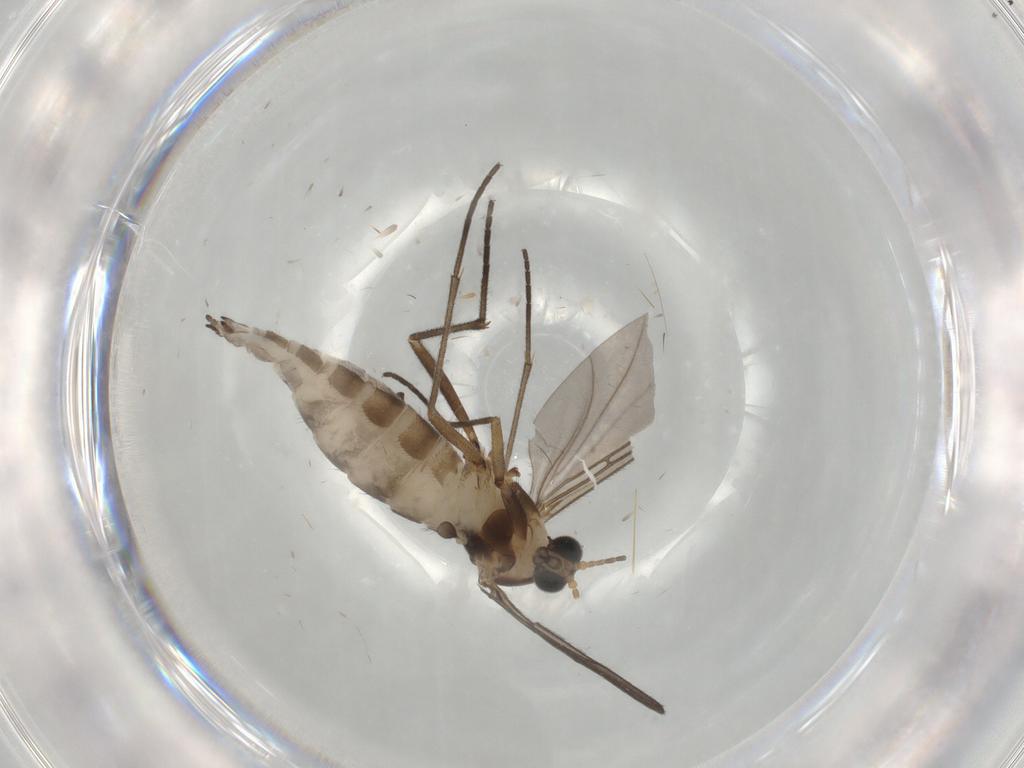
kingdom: Animalia
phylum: Arthropoda
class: Insecta
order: Diptera
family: Sciaridae
